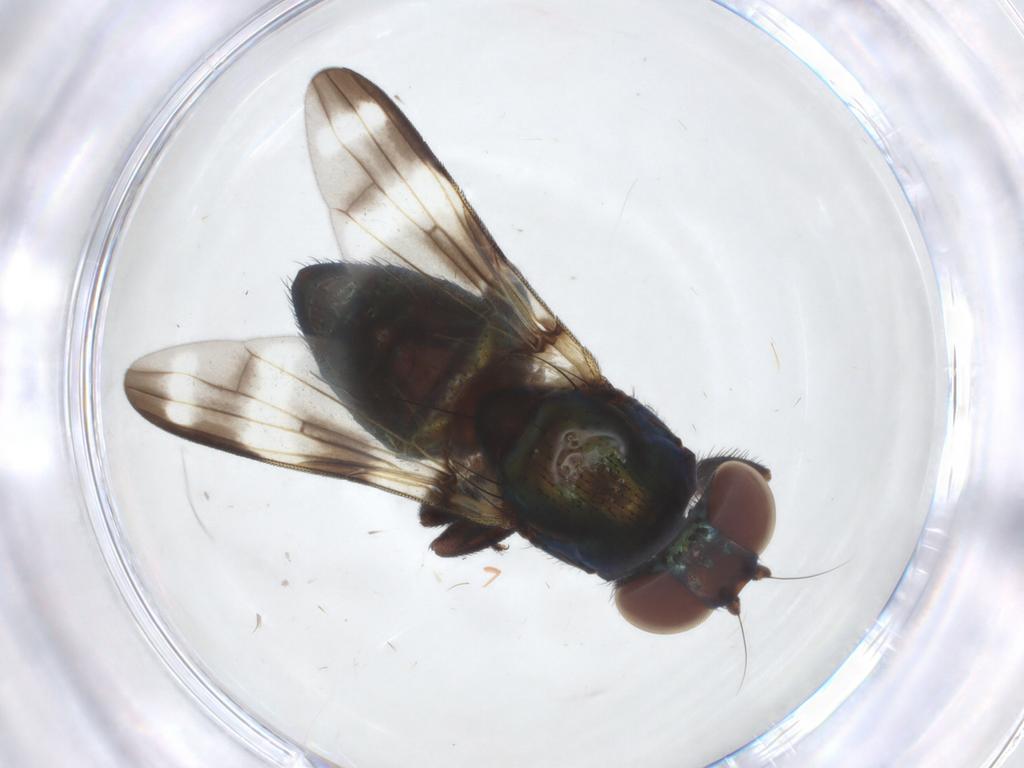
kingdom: Animalia
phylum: Arthropoda
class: Insecta
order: Diptera
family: Ulidiidae
